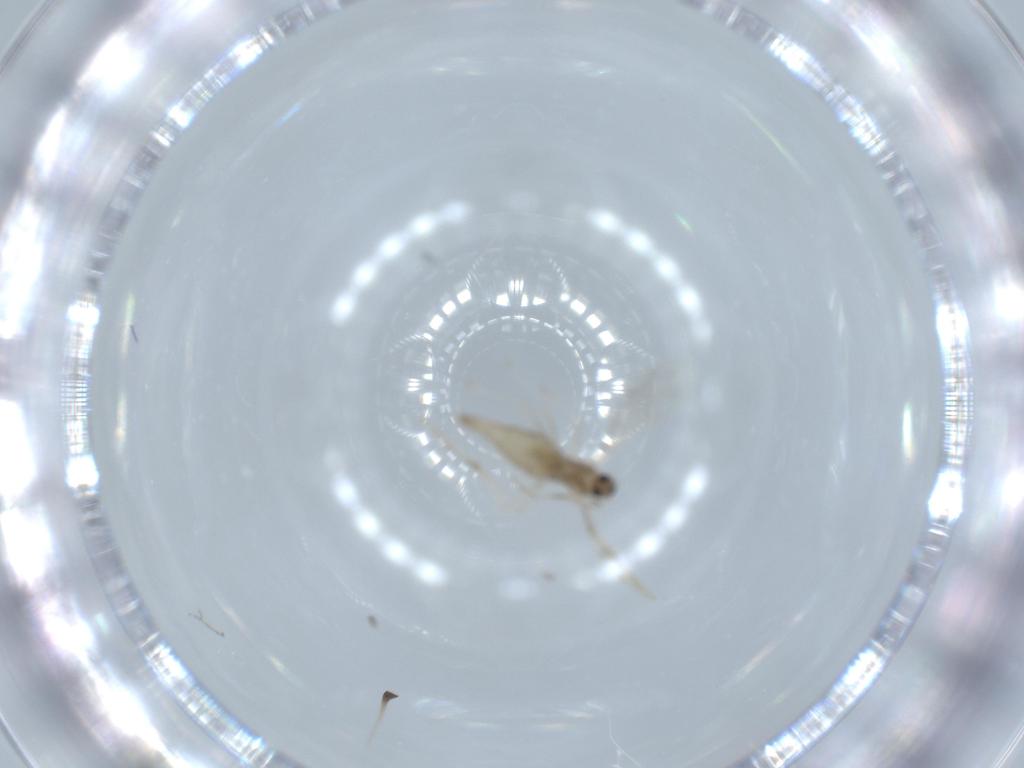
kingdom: Animalia
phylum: Arthropoda
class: Insecta
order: Diptera
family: Cecidomyiidae
